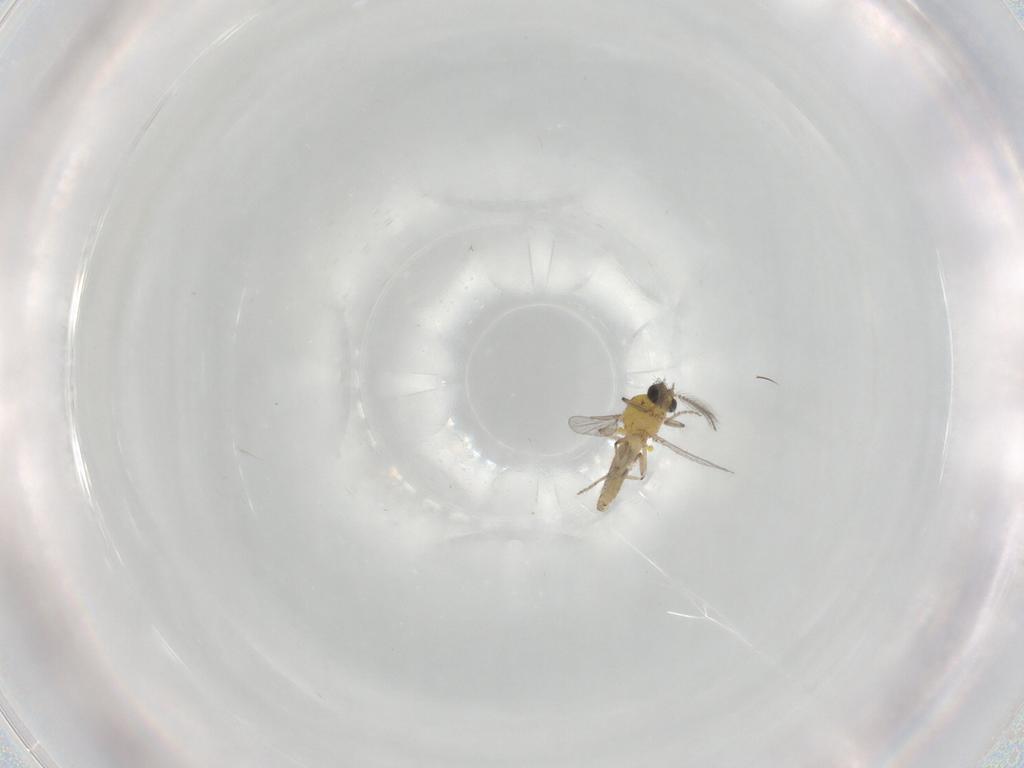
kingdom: Animalia
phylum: Arthropoda
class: Insecta
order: Diptera
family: Ceratopogonidae
